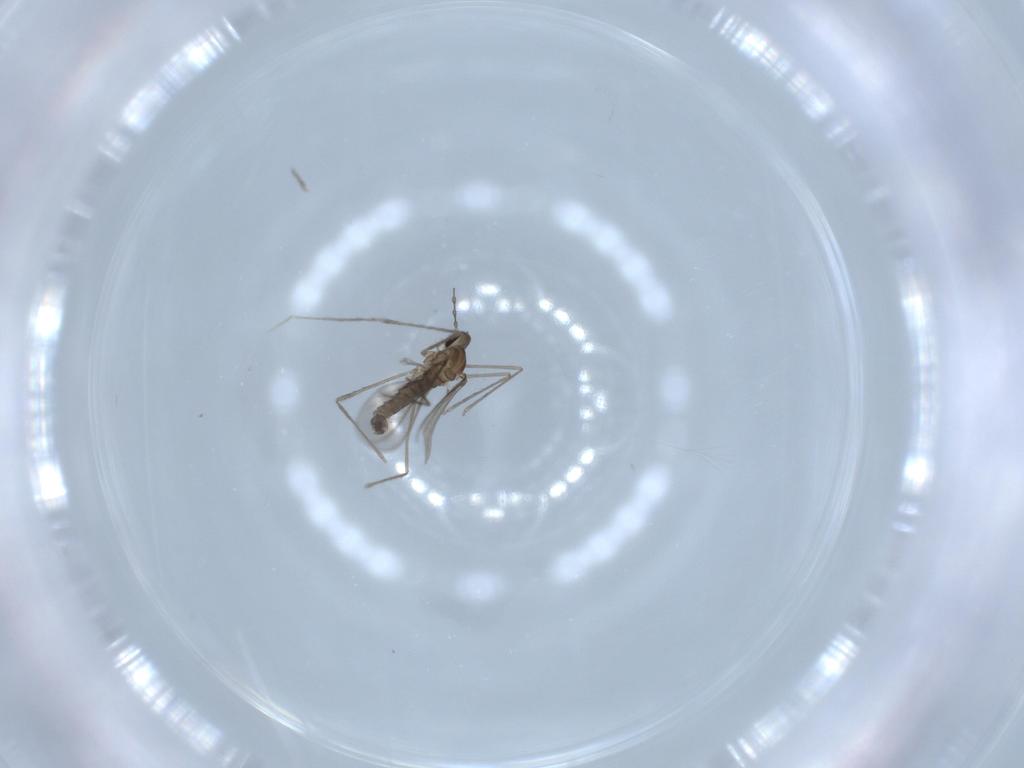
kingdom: Animalia
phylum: Arthropoda
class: Insecta
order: Diptera
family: Cecidomyiidae
